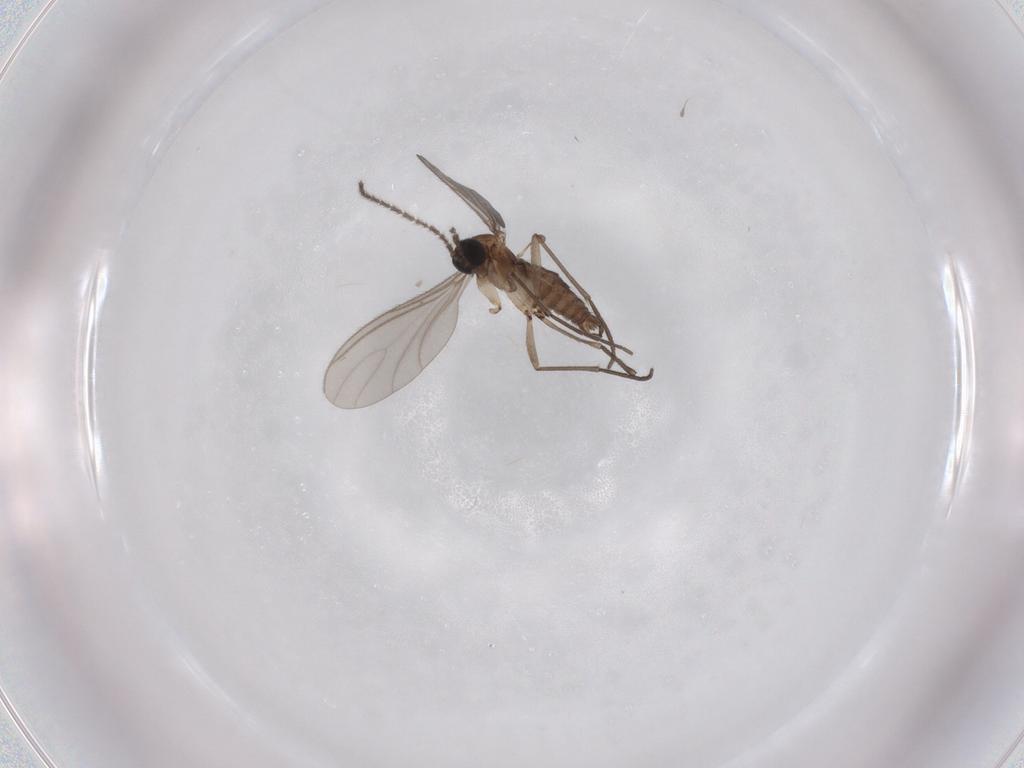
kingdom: Animalia
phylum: Arthropoda
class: Insecta
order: Diptera
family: Sciaridae
